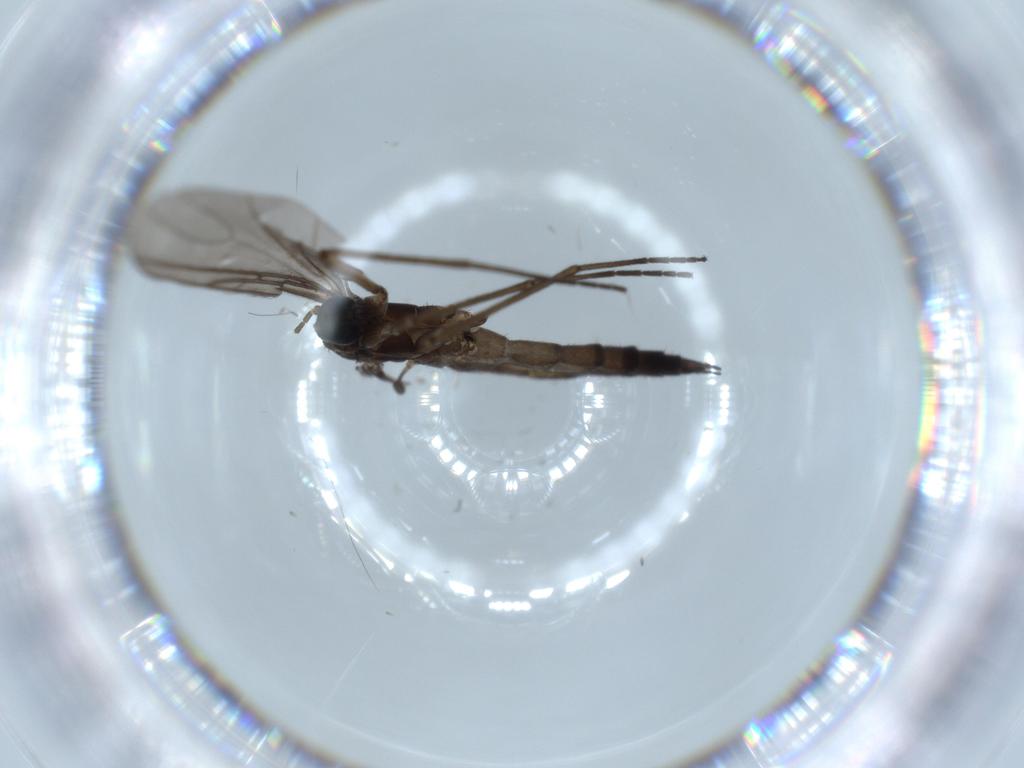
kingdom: Animalia
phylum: Arthropoda
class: Insecta
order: Diptera
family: Sciaridae
